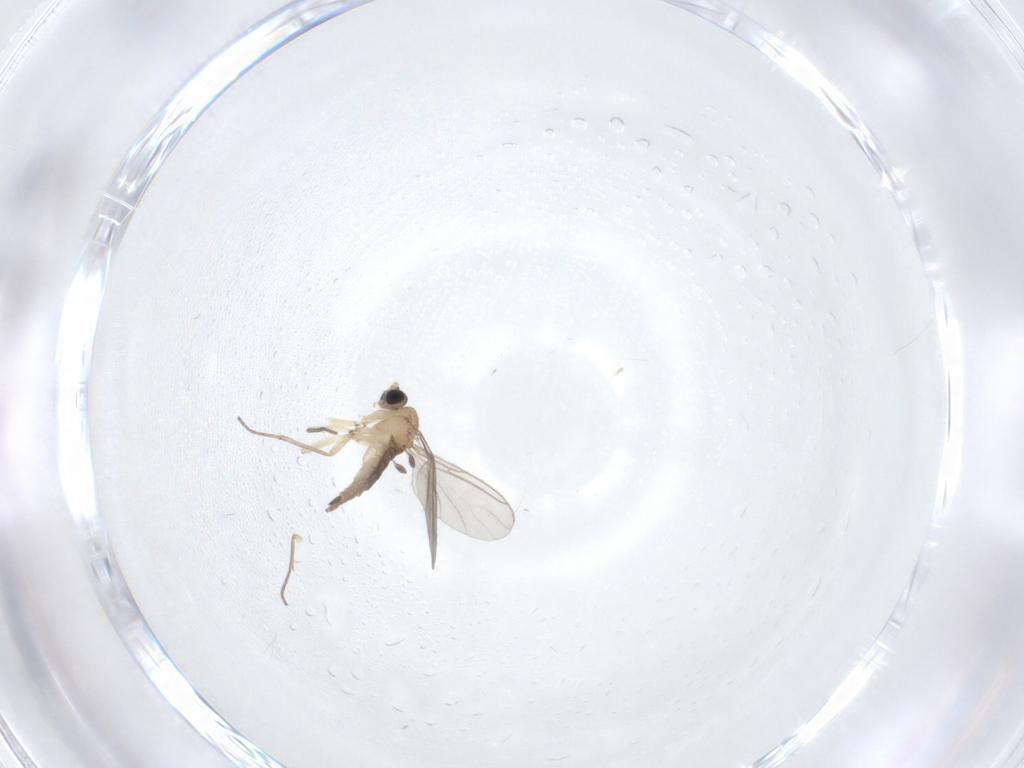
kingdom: Animalia
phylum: Arthropoda
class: Insecta
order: Diptera
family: Sciaridae
